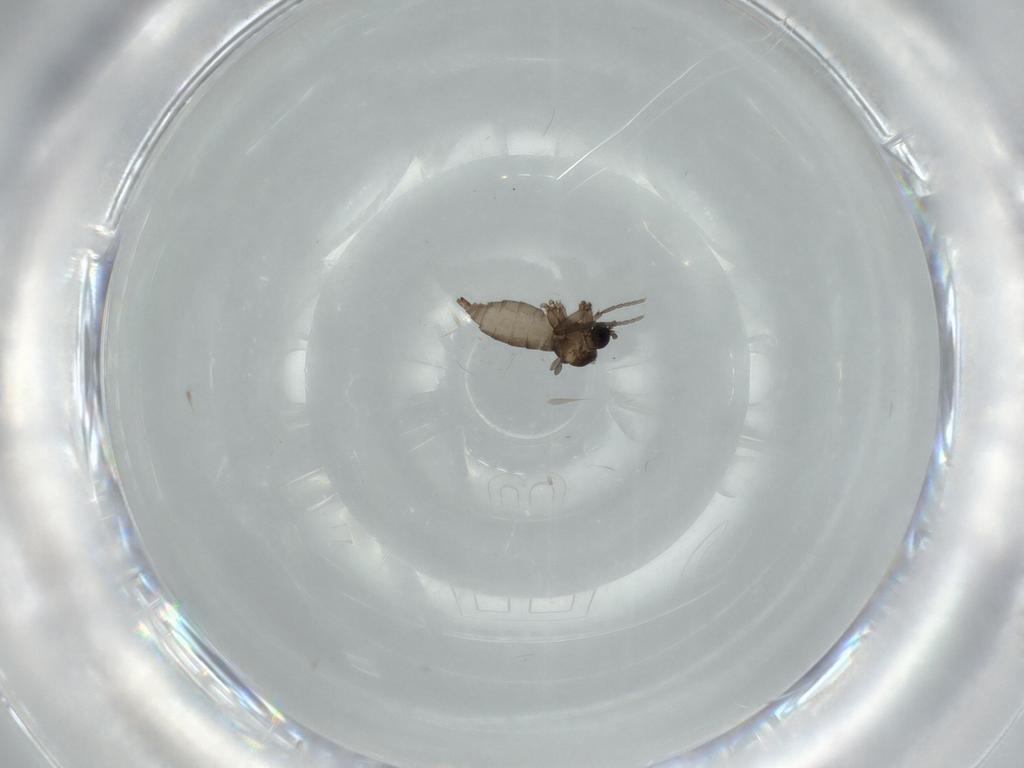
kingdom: Animalia
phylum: Arthropoda
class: Insecta
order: Diptera
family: Sciaridae
